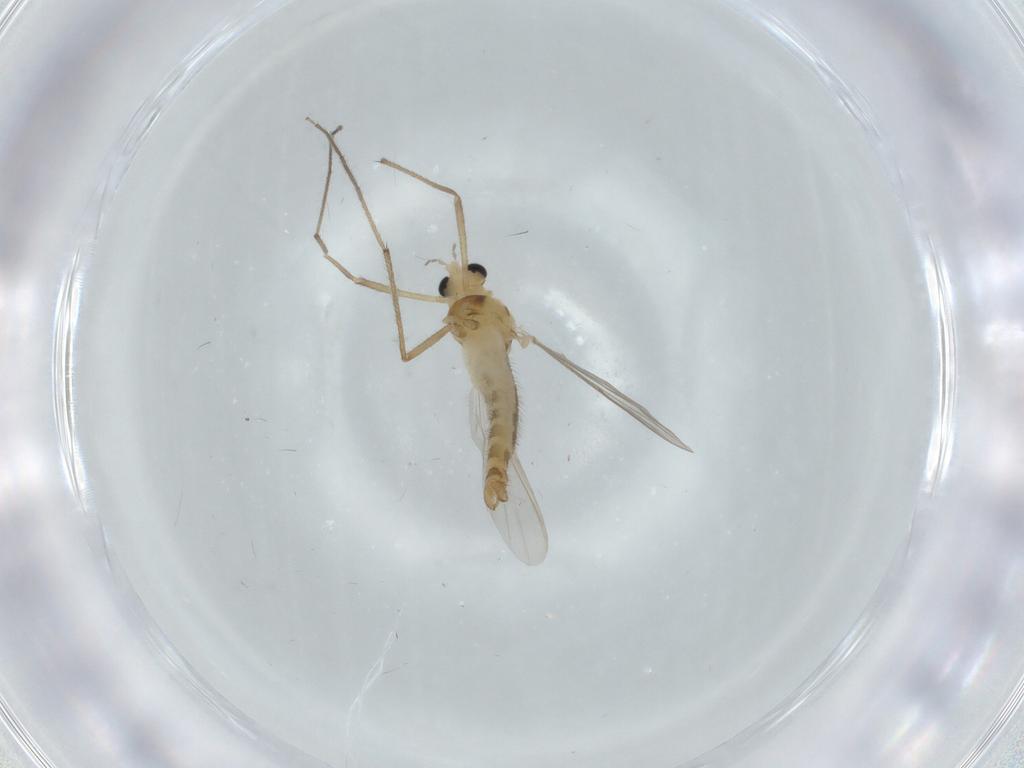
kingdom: Animalia
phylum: Arthropoda
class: Insecta
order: Diptera
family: Chironomidae
